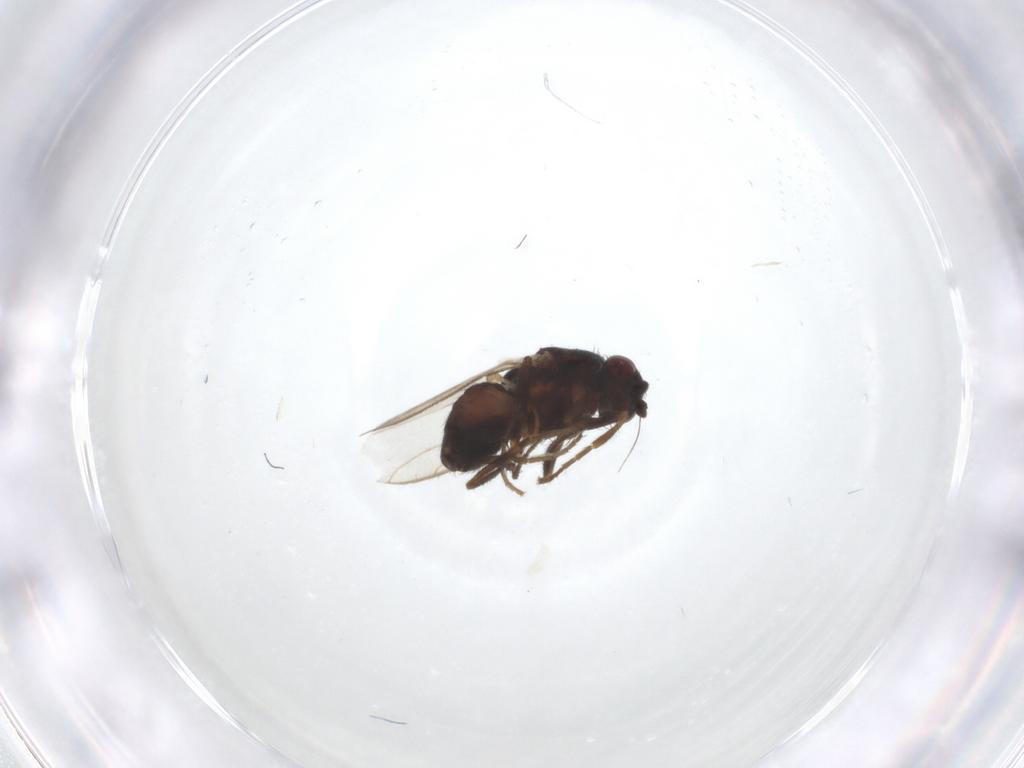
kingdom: Animalia
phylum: Arthropoda
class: Insecta
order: Diptera
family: Sphaeroceridae
